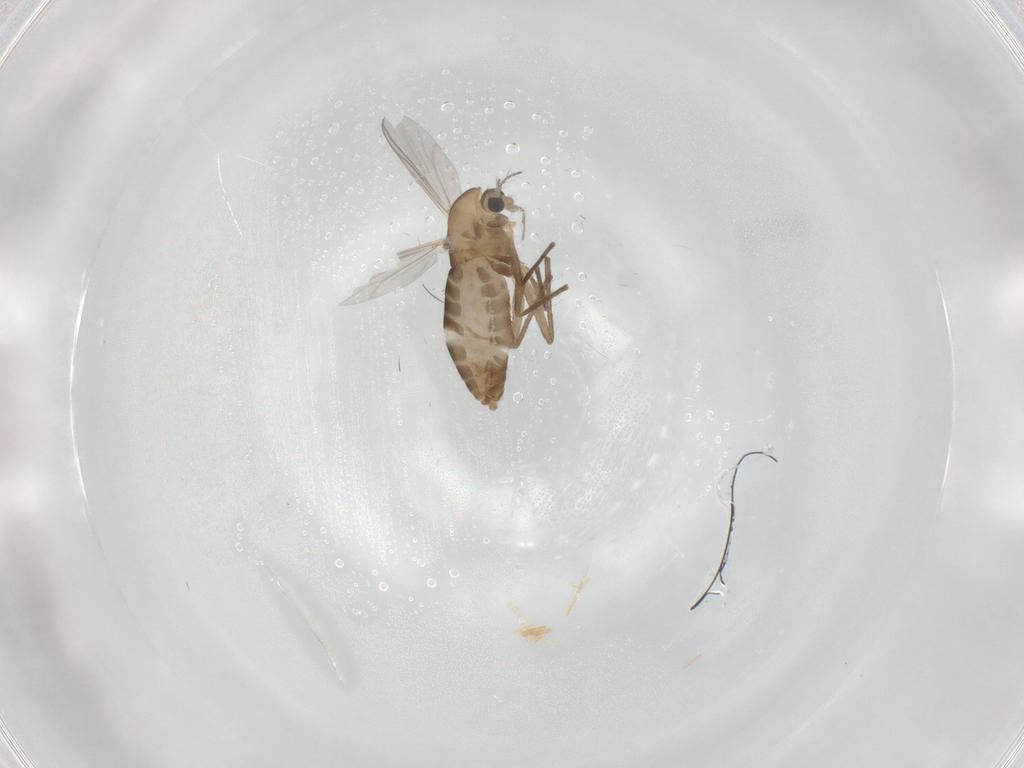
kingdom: Animalia
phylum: Arthropoda
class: Insecta
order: Diptera
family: Chironomidae
